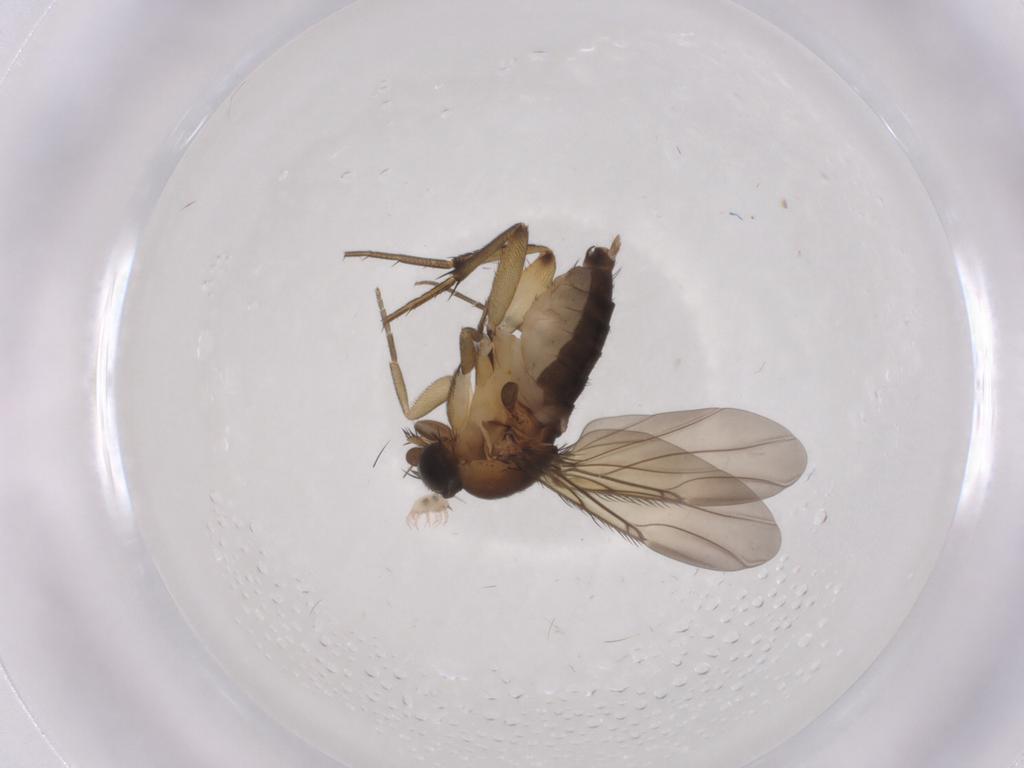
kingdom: Animalia
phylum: Arthropoda
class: Insecta
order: Diptera
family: Phoridae
